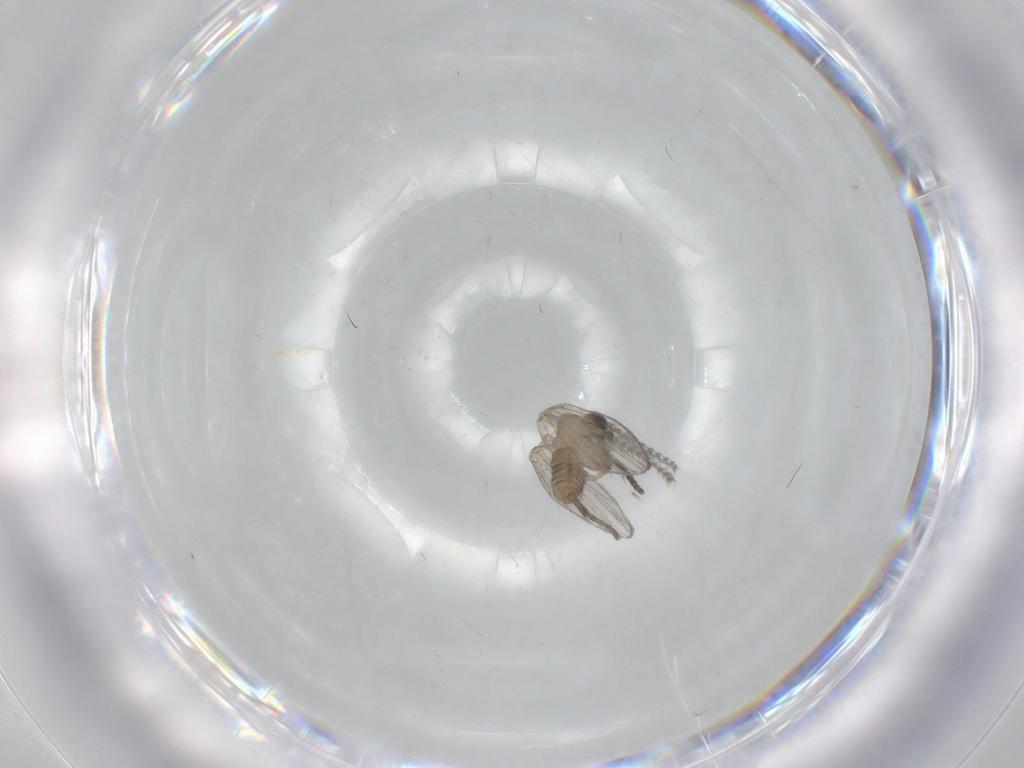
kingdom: Animalia
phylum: Arthropoda
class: Insecta
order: Diptera
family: Psychodidae
